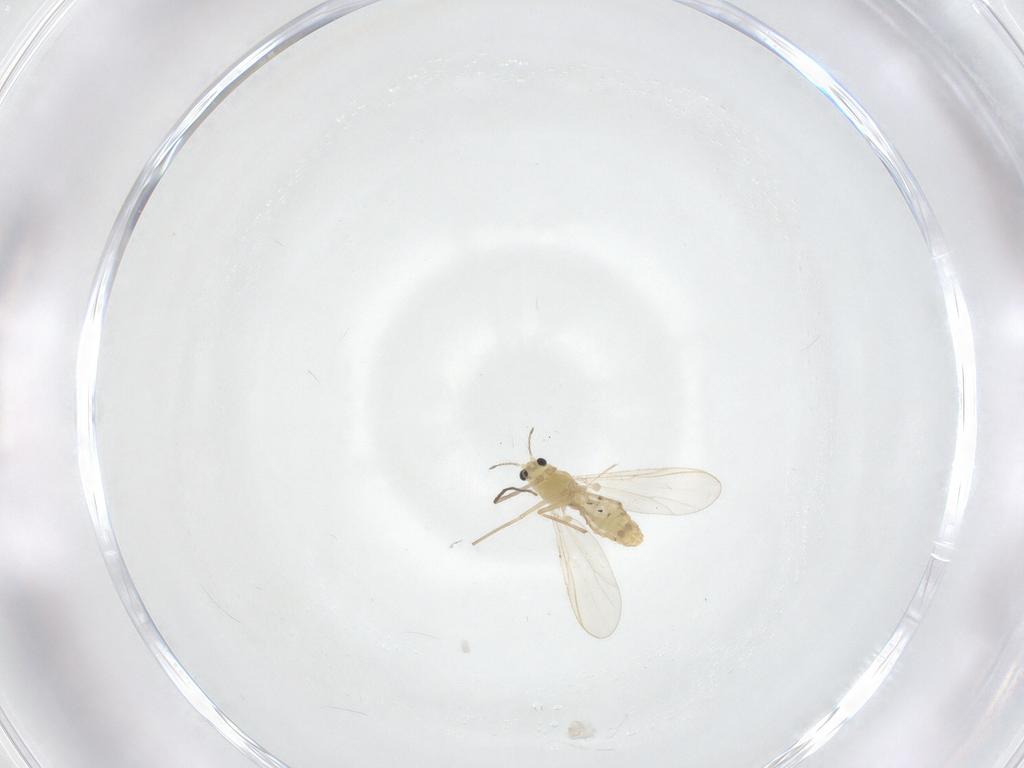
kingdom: Animalia
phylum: Arthropoda
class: Insecta
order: Diptera
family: Chironomidae
